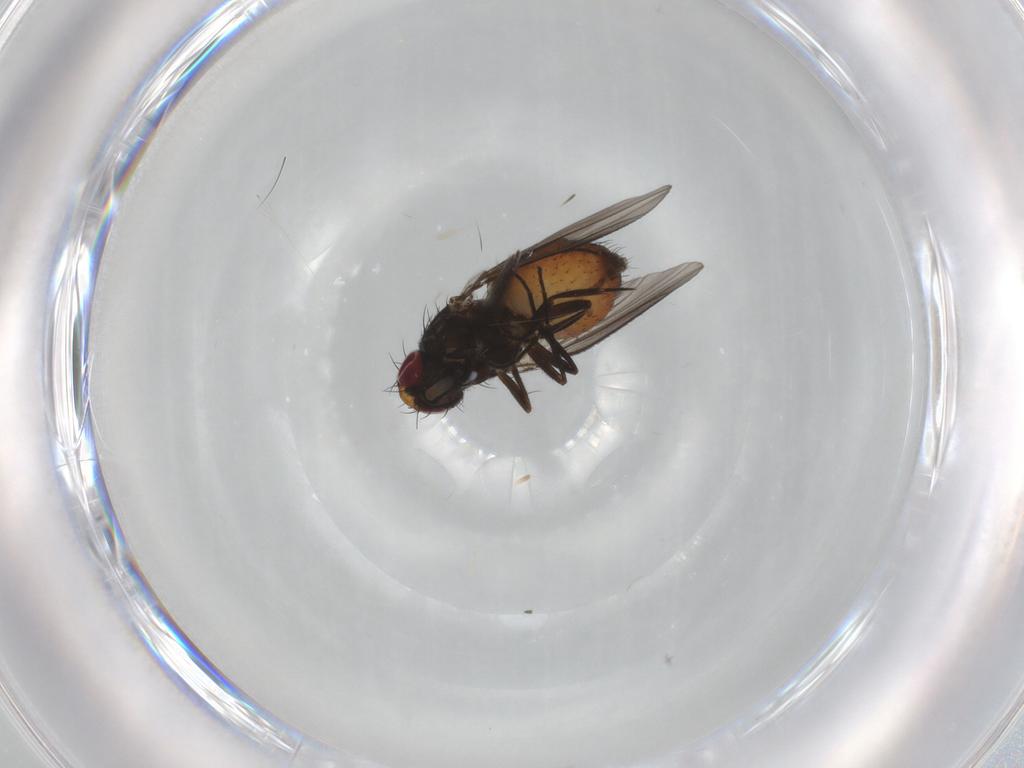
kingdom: Animalia
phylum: Arthropoda
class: Insecta
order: Diptera
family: Ceratopogonidae
